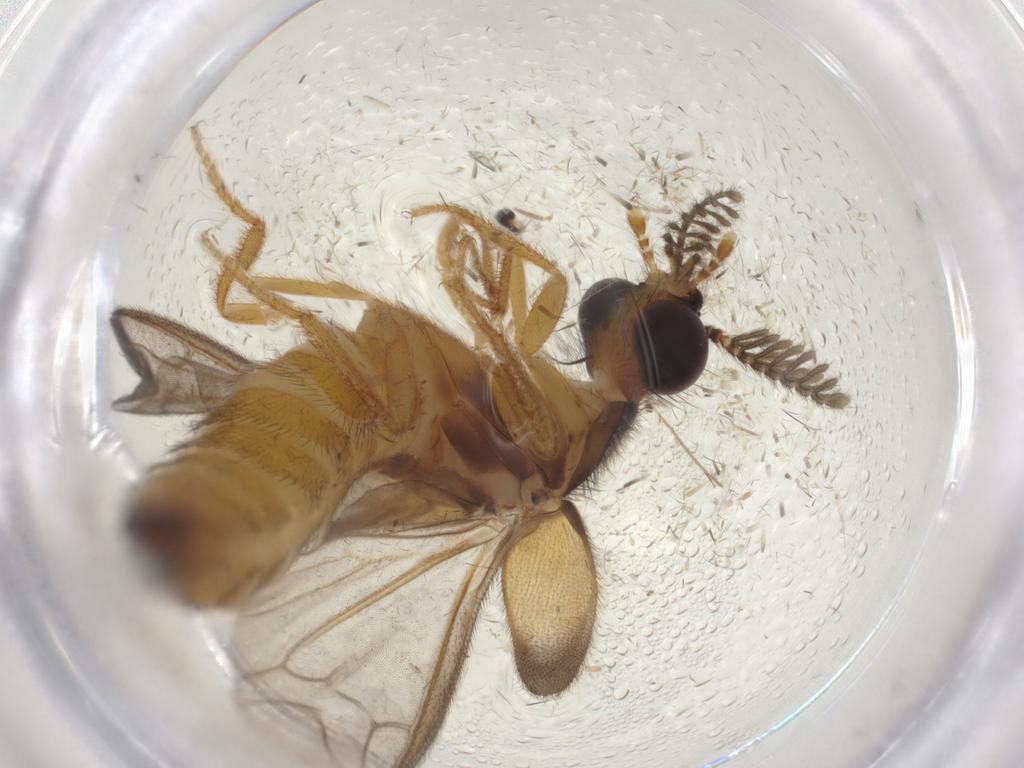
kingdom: Animalia
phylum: Arthropoda
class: Insecta
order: Coleoptera
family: Phengodidae
